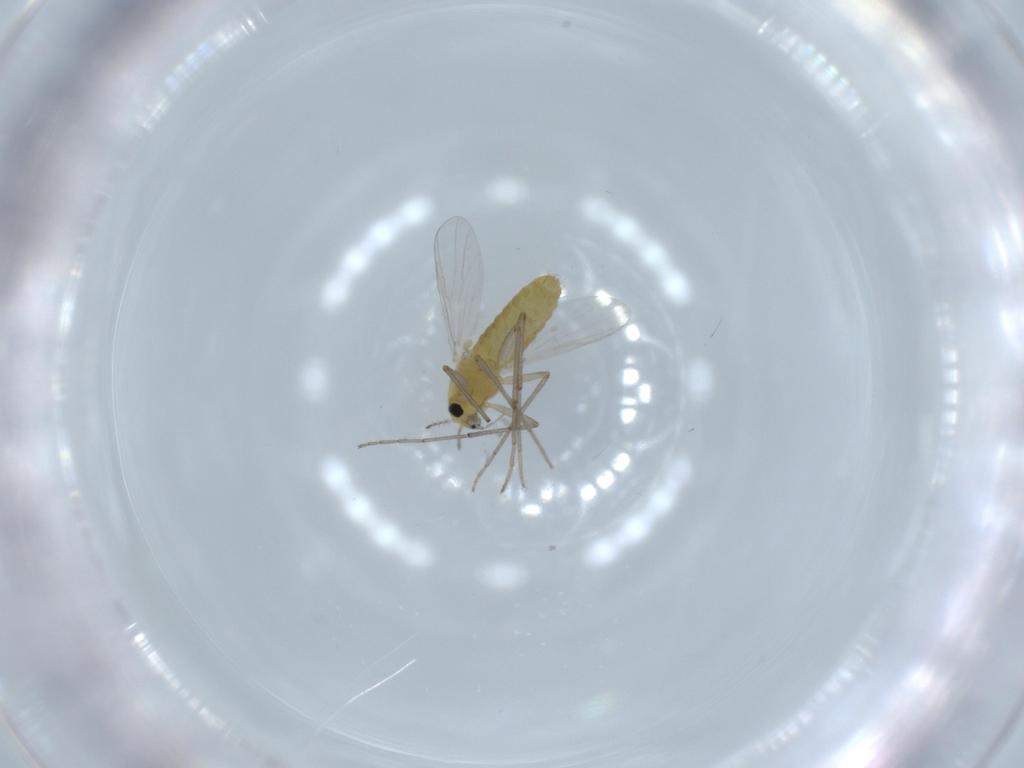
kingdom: Animalia
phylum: Arthropoda
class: Insecta
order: Diptera
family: Chironomidae
